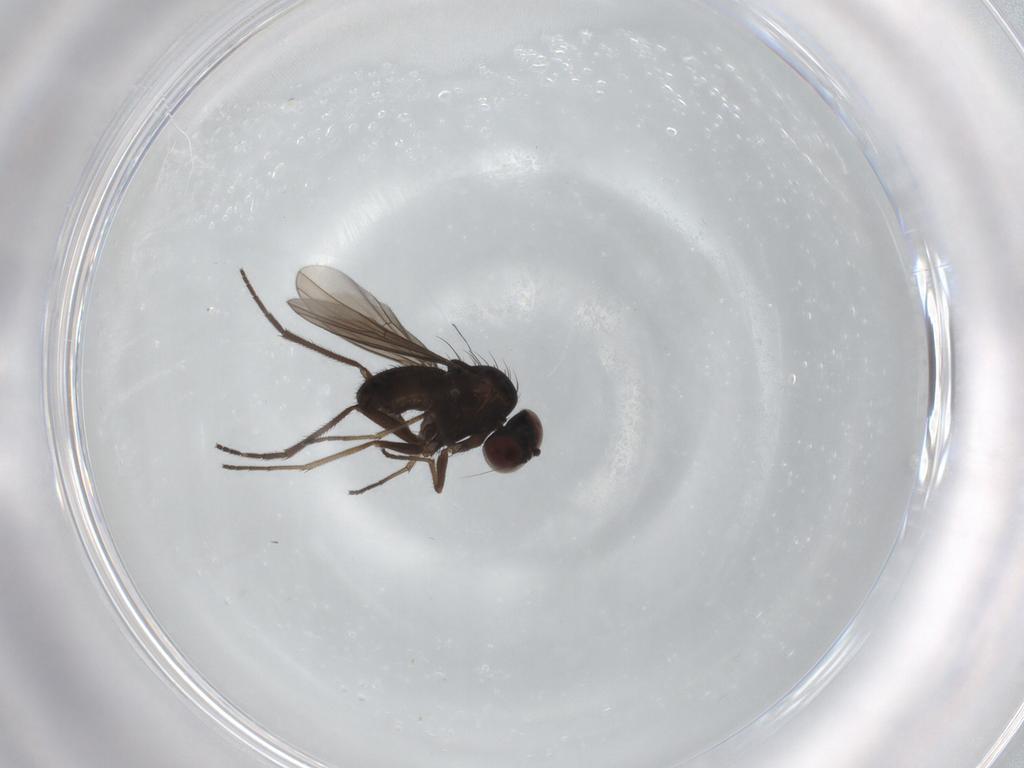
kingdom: Animalia
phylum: Arthropoda
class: Insecta
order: Diptera
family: Dolichopodidae
